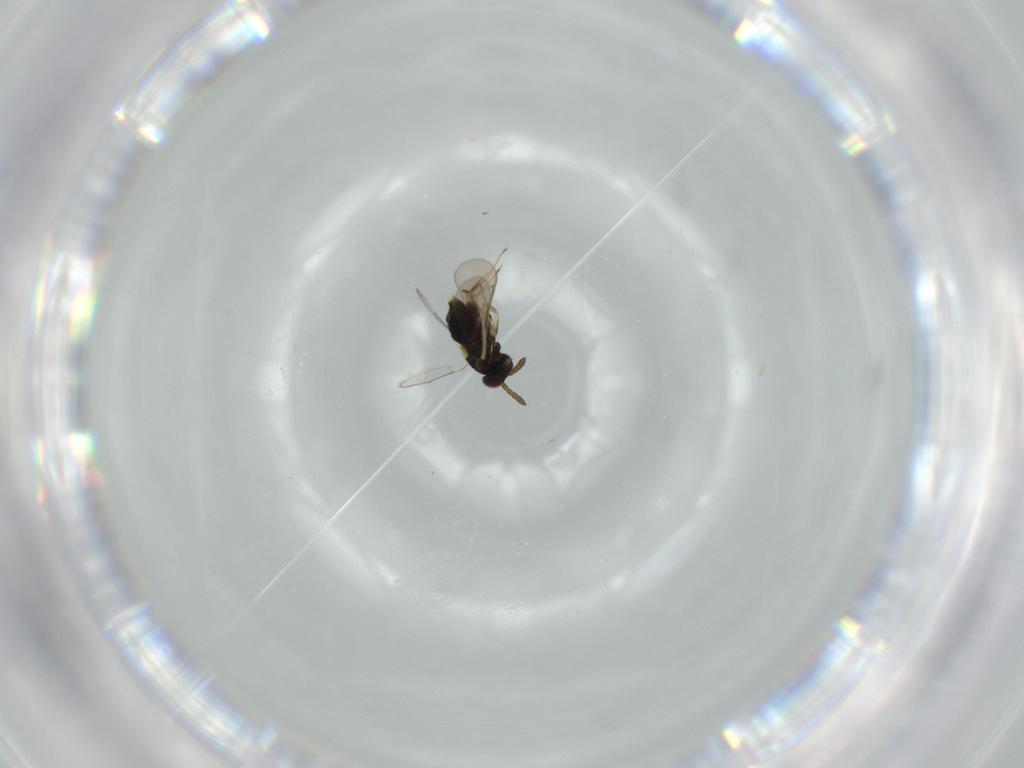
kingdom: Animalia
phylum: Arthropoda
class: Insecta
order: Hymenoptera
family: Aphelinidae
